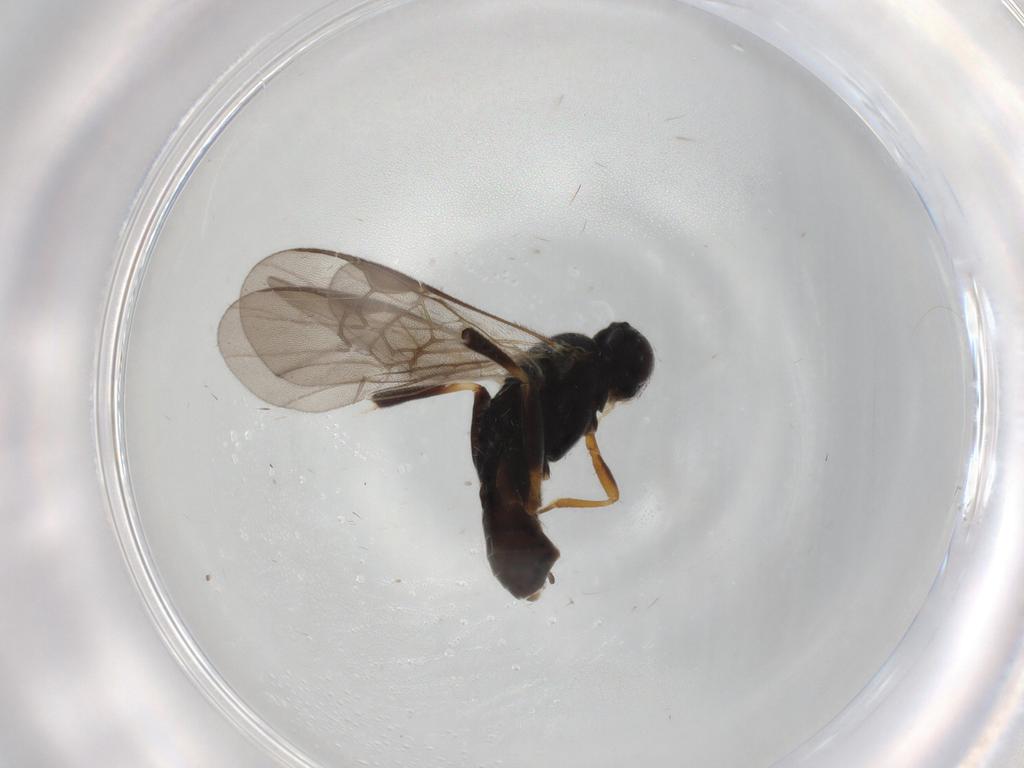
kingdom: Animalia
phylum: Arthropoda
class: Insecta
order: Hymenoptera
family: Braconidae
